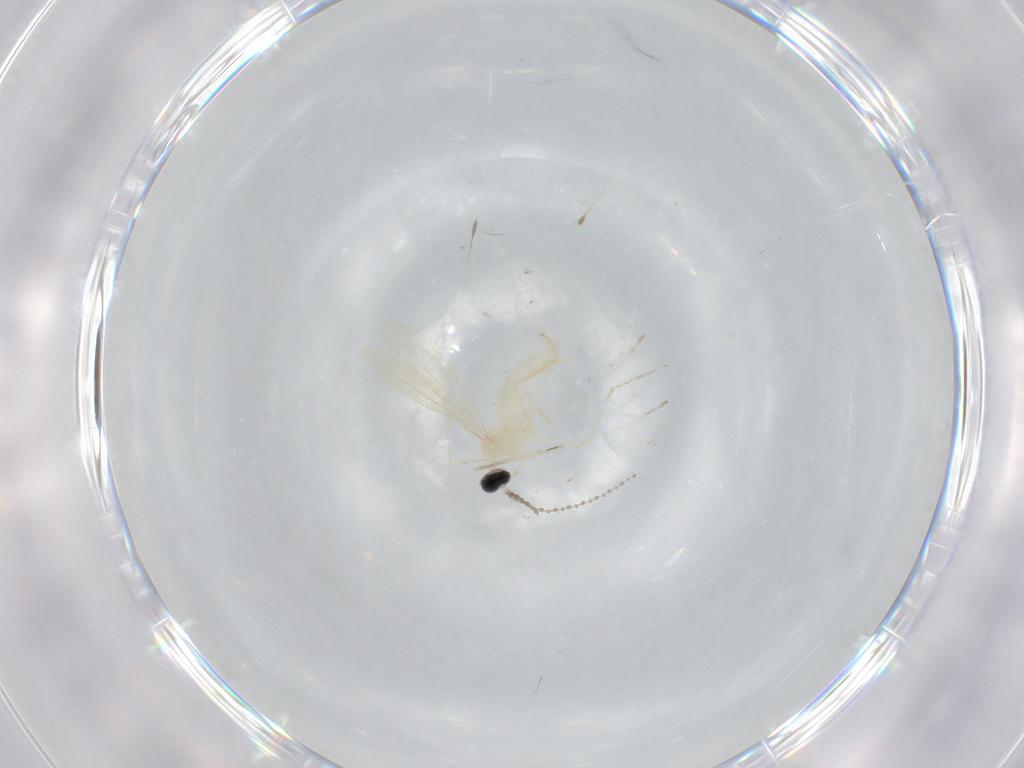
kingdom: Animalia
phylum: Arthropoda
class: Insecta
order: Diptera
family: Cecidomyiidae
